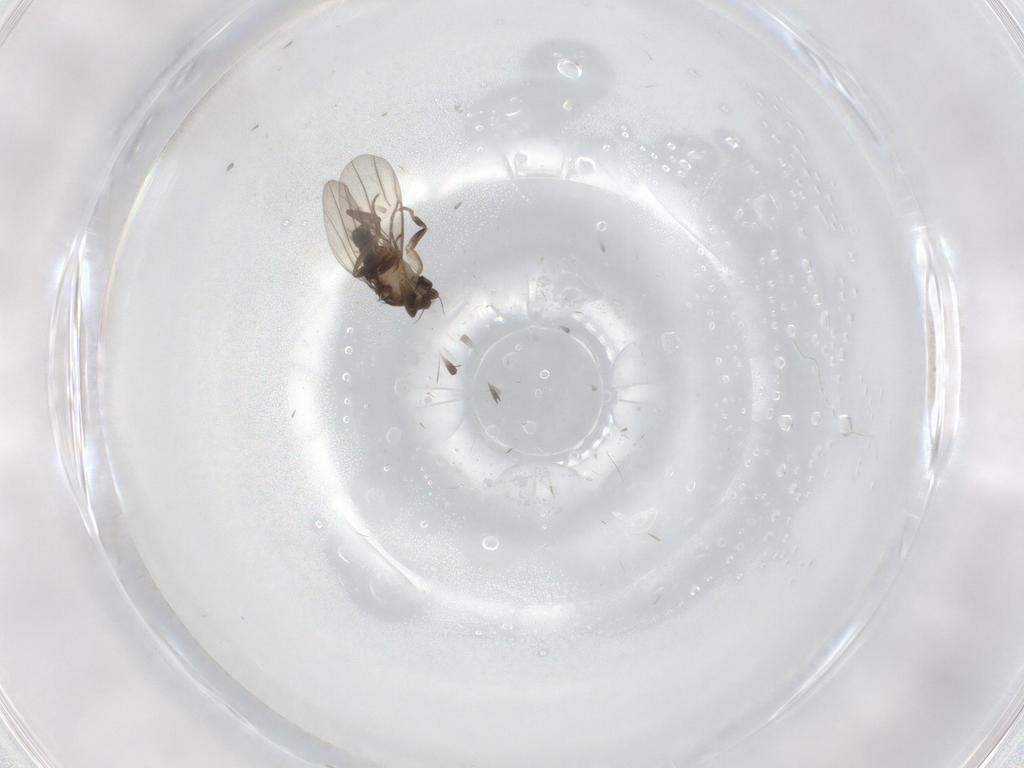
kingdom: Animalia
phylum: Arthropoda
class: Insecta
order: Diptera
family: Phoridae
